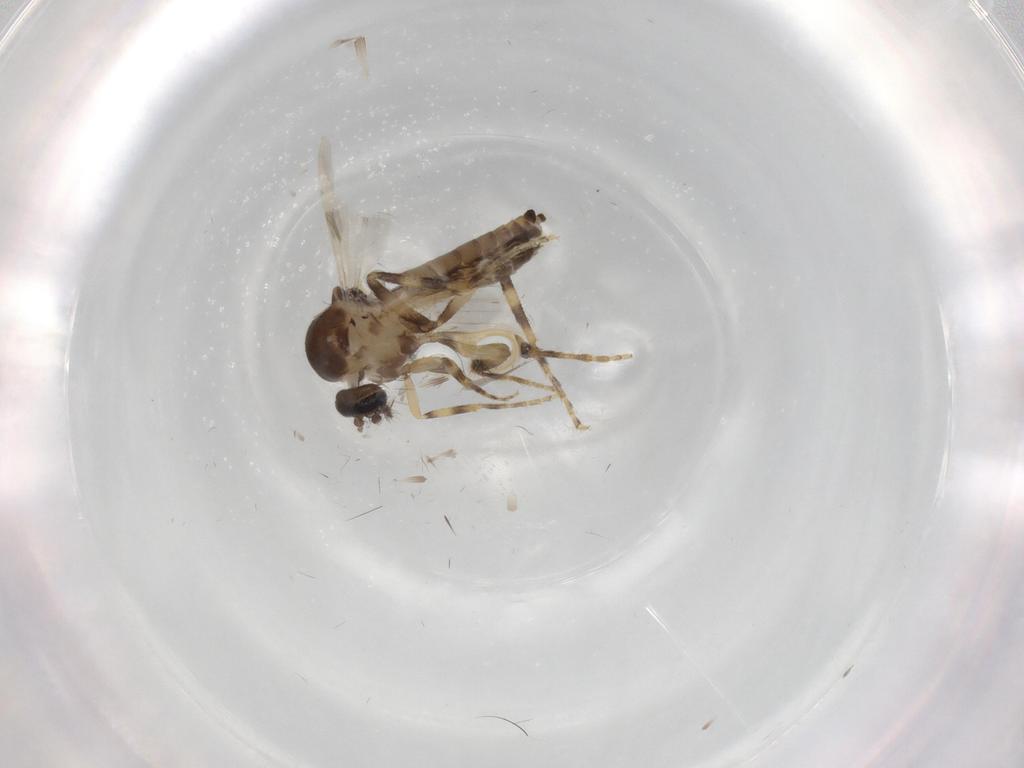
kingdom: Animalia
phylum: Arthropoda
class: Insecta
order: Diptera
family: Ceratopogonidae
